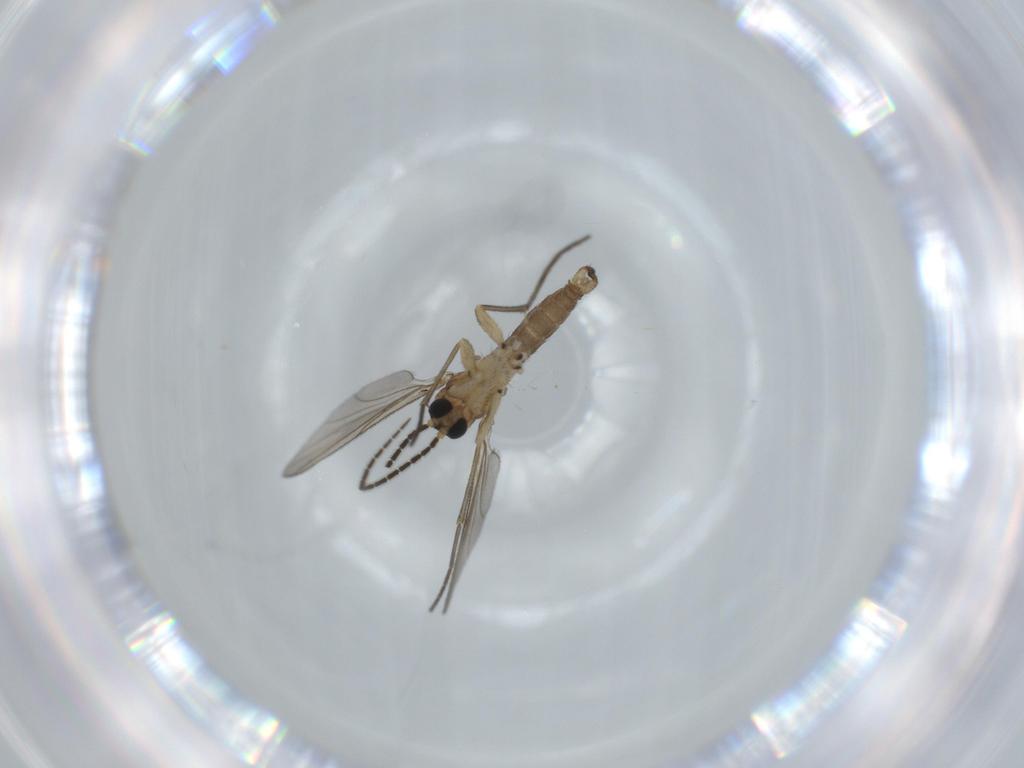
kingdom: Animalia
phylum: Arthropoda
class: Insecta
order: Diptera
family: Sciaridae
